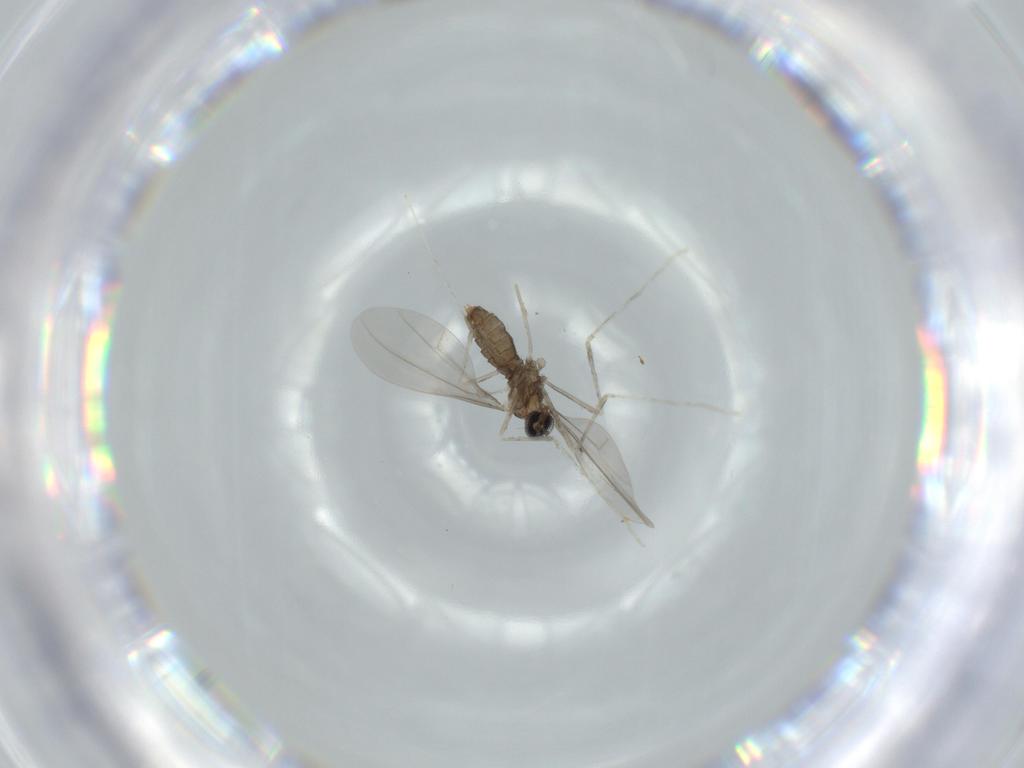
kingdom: Animalia
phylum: Arthropoda
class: Insecta
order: Diptera
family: Cecidomyiidae
